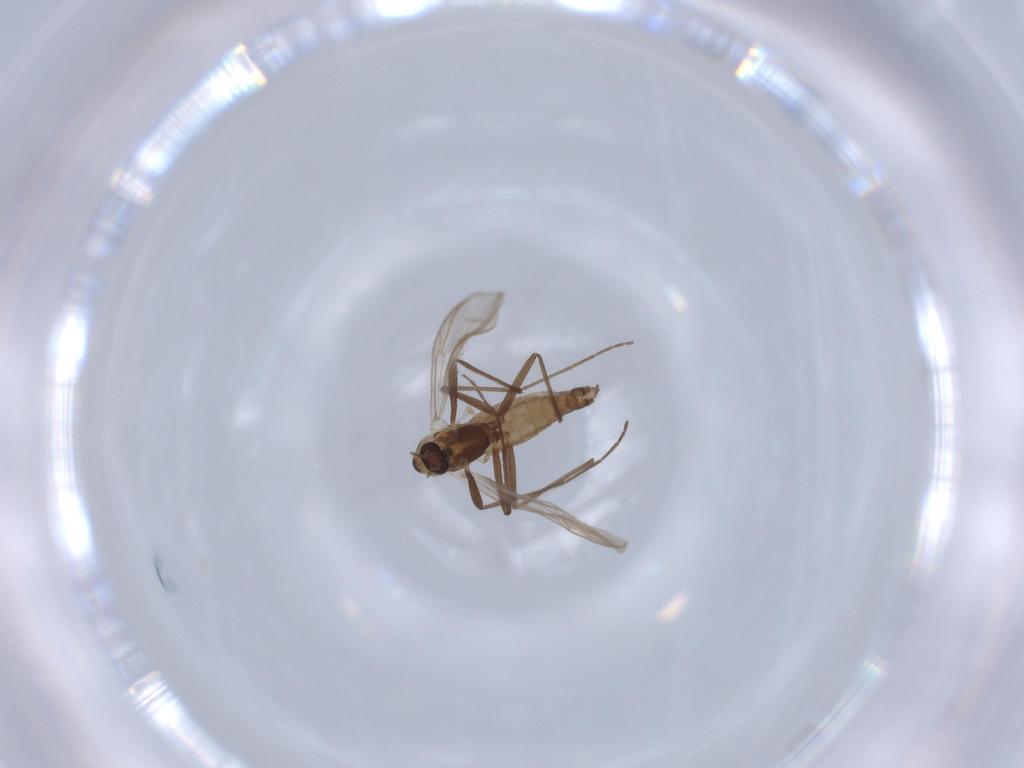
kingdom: Animalia
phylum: Arthropoda
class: Insecta
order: Diptera
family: Chironomidae
